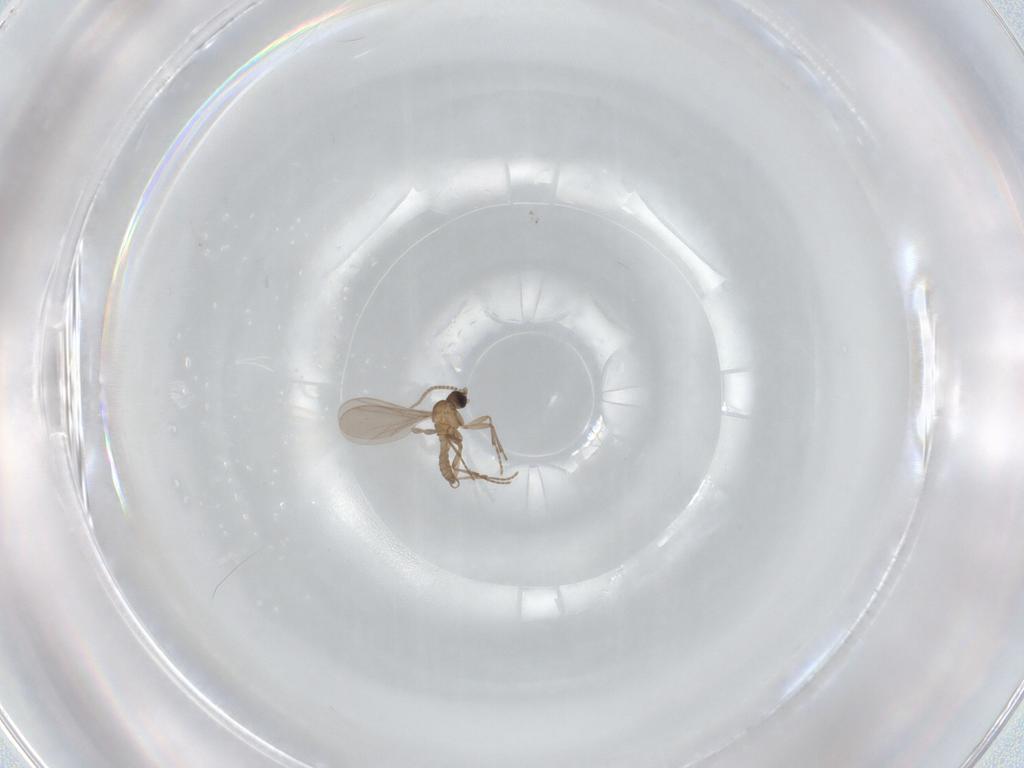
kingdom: Animalia
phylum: Arthropoda
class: Insecta
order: Diptera
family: Sciaridae
